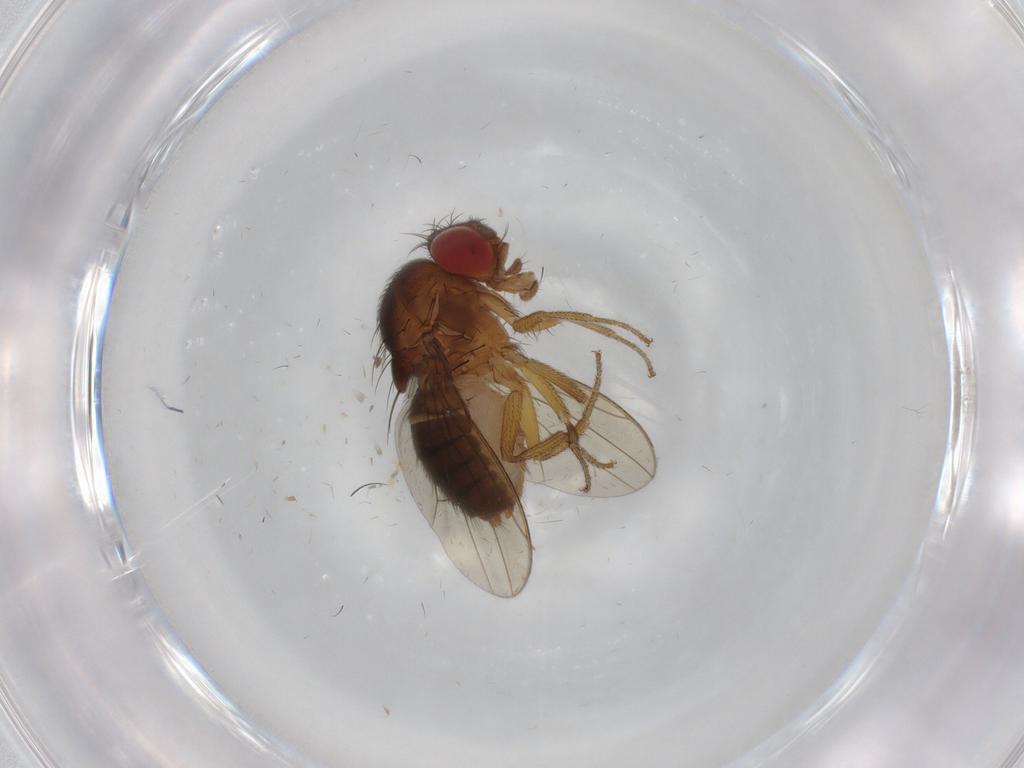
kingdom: Animalia
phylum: Arthropoda
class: Insecta
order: Diptera
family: Drosophilidae
